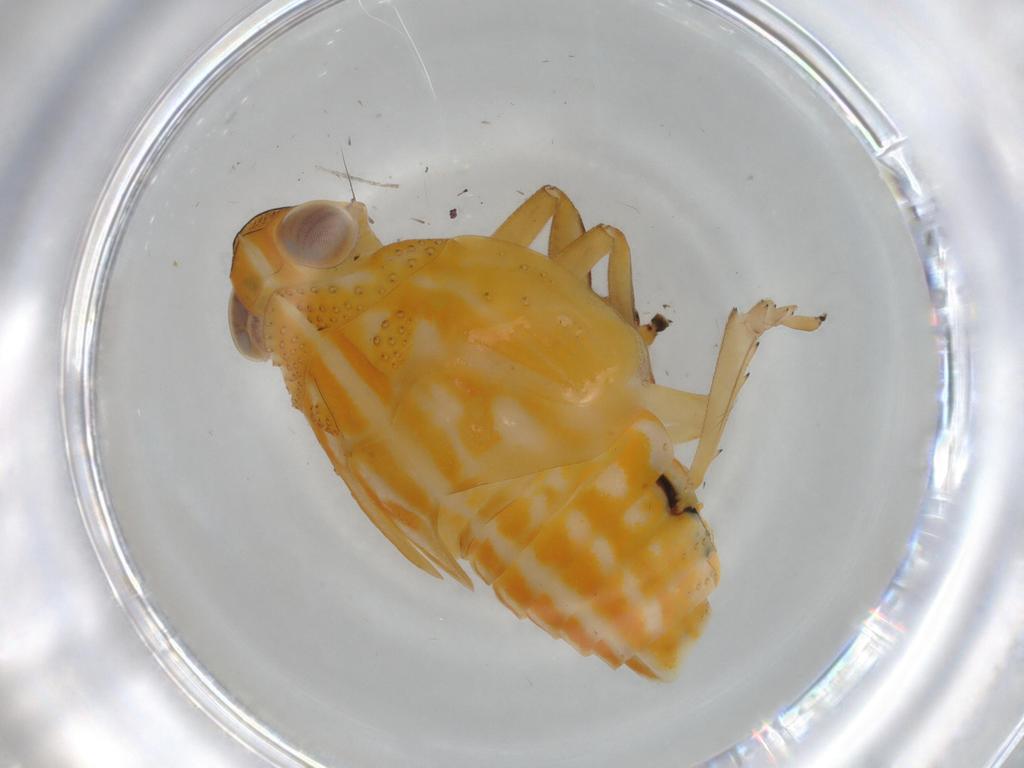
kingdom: Animalia
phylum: Arthropoda
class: Insecta
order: Hemiptera
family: Issidae
